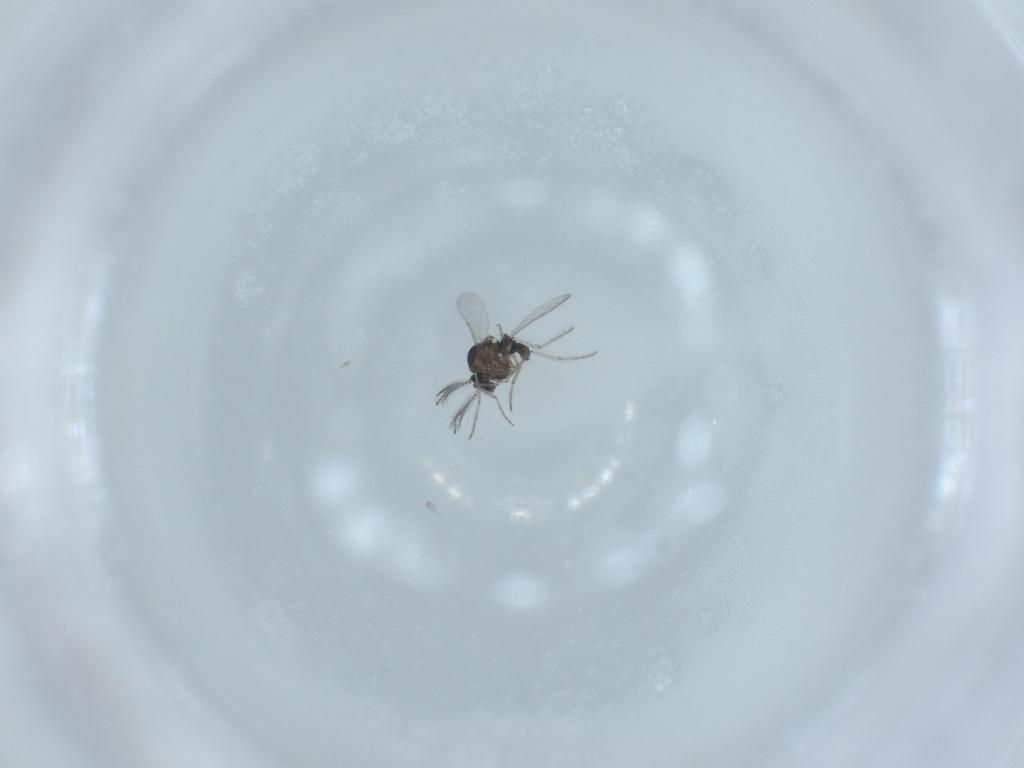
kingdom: Animalia
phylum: Arthropoda
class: Insecta
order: Diptera
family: Ceratopogonidae
